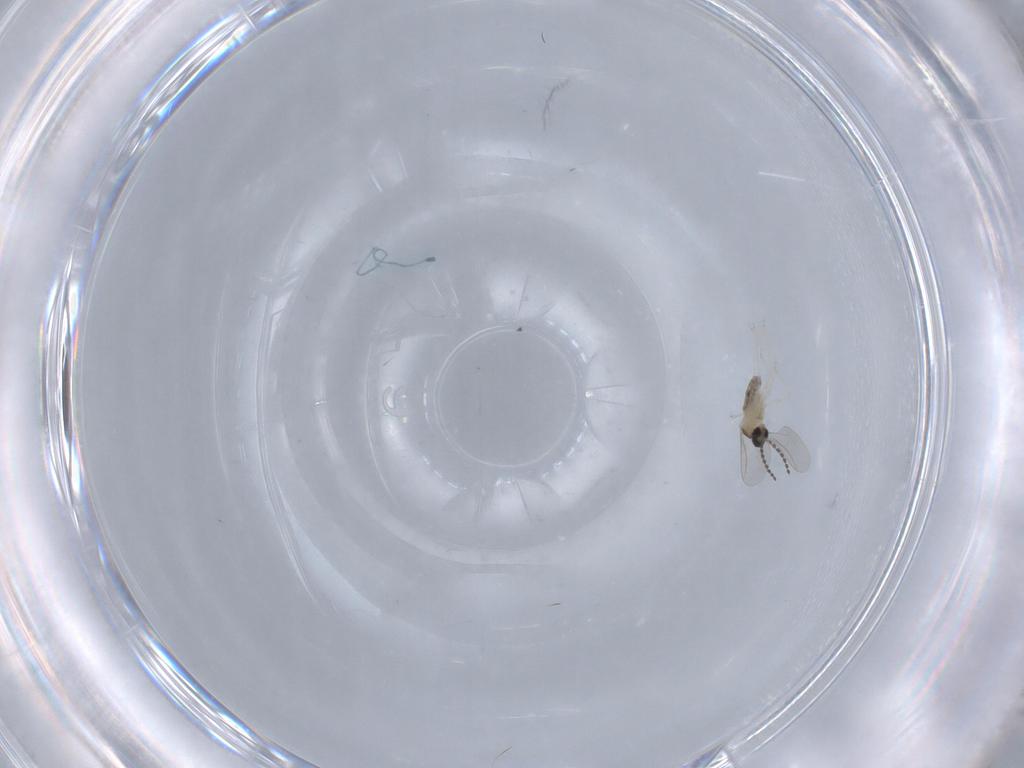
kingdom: Animalia
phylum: Arthropoda
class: Insecta
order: Diptera
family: Cecidomyiidae
